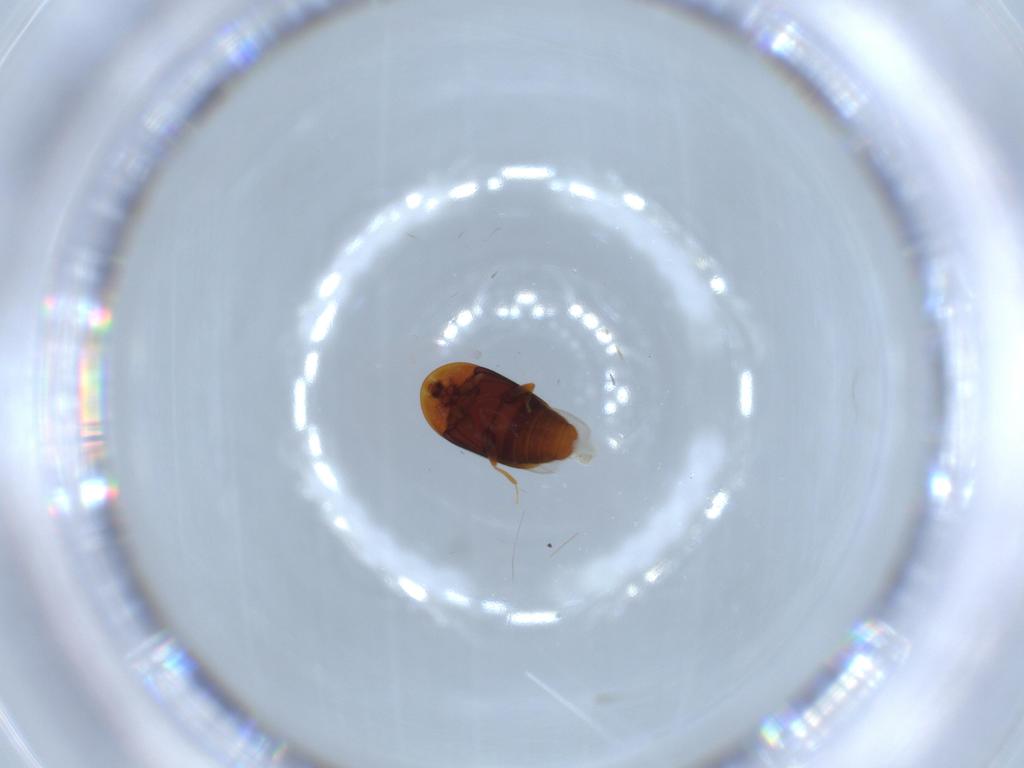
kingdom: Animalia
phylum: Arthropoda
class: Insecta
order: Coleoptera
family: Corylophidae
